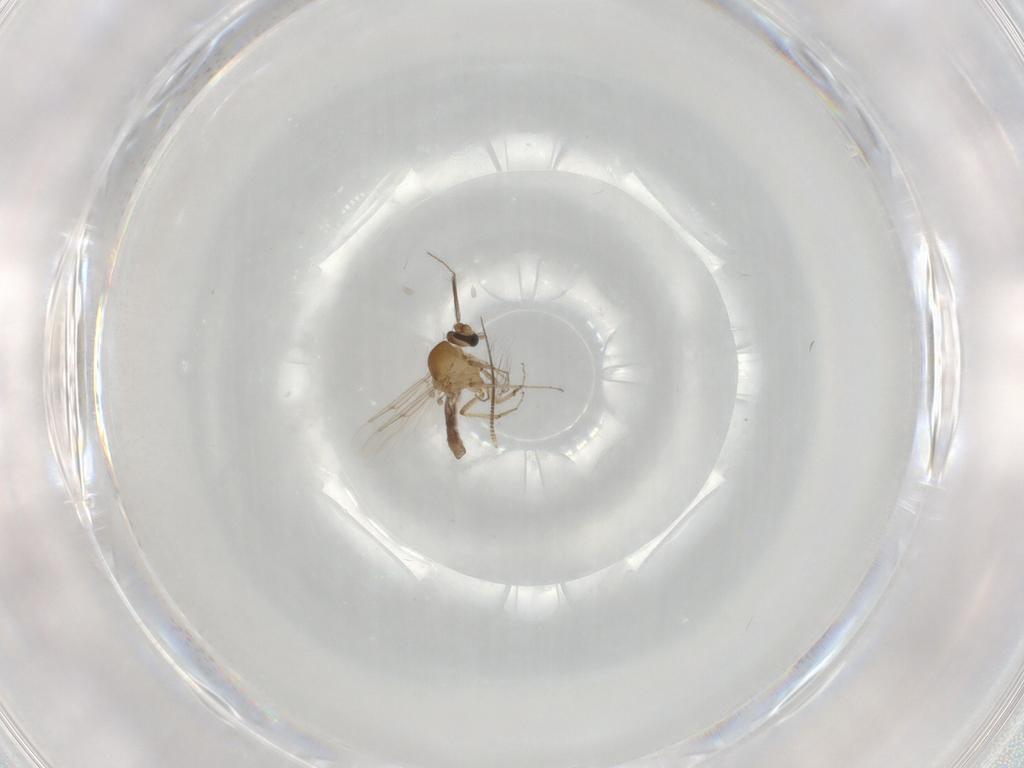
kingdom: Animalia
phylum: Arthropoda
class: Insecta
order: Diptera
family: Chironomidae
